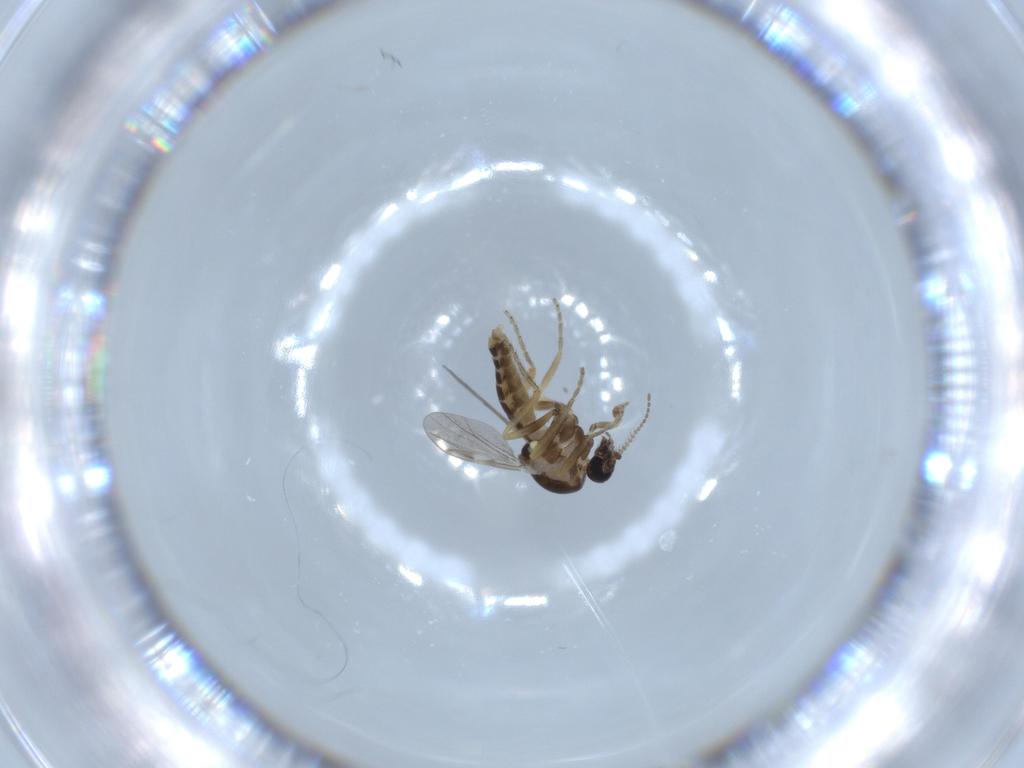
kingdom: Animalia
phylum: Arthropoda
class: Insecta
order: Diptera
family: Ceratopogonidae
